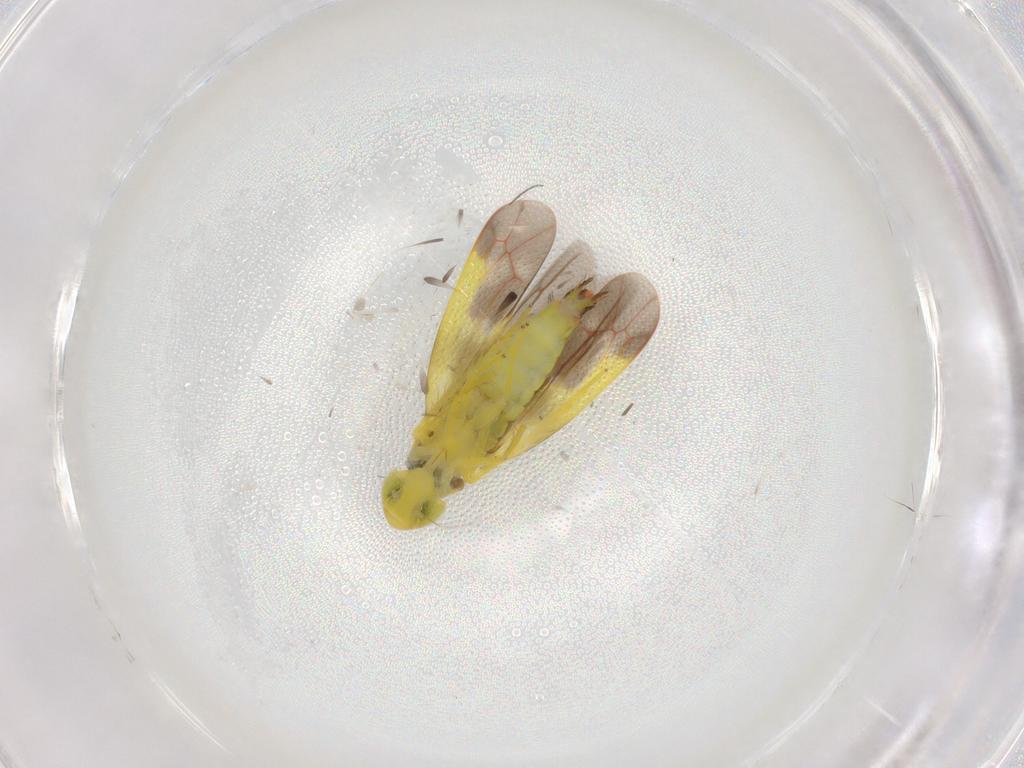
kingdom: Animalia
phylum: Arthropoda
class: Insecta
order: Hemiptera
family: Cicadellidae
